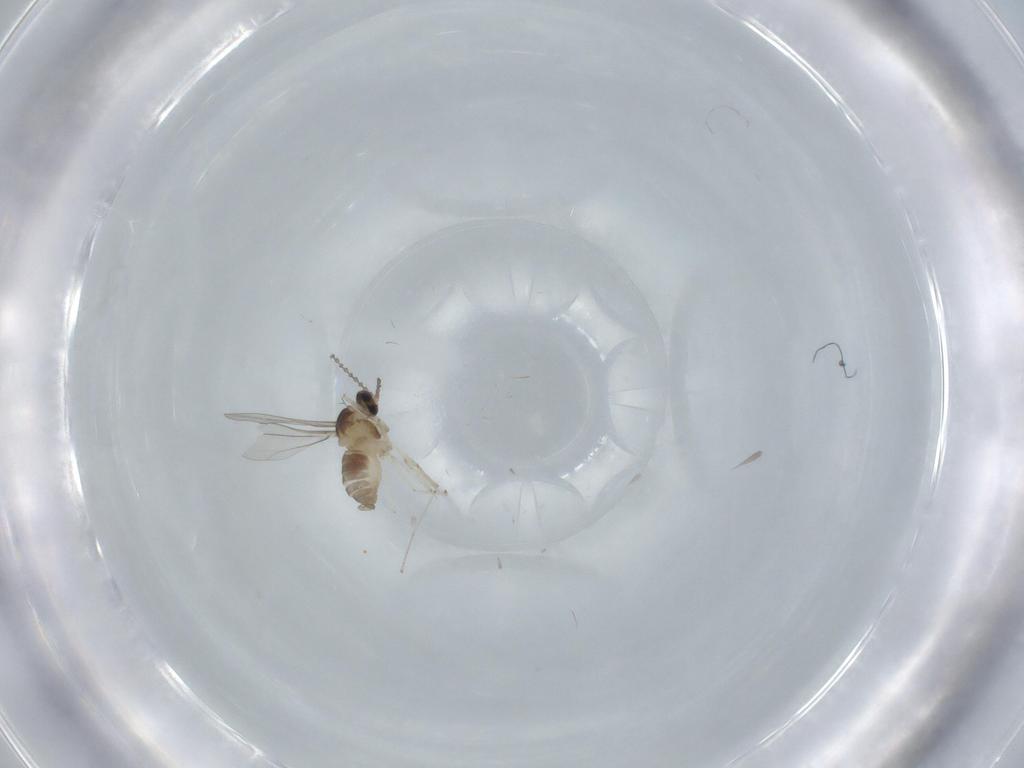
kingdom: Animalia
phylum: Arthropoda
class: Insecta
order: Diptera
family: Cecidomyiidae
